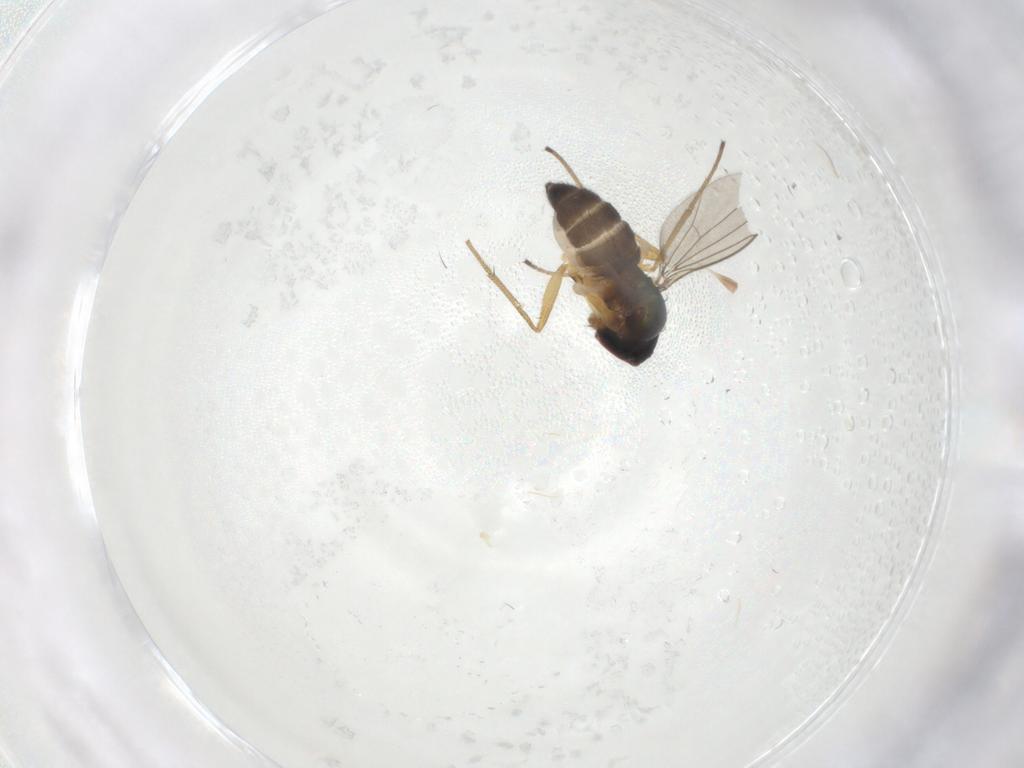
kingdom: Animalia
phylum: Arthropoda
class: Insecta
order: Diptera
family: Dolichopodidae
